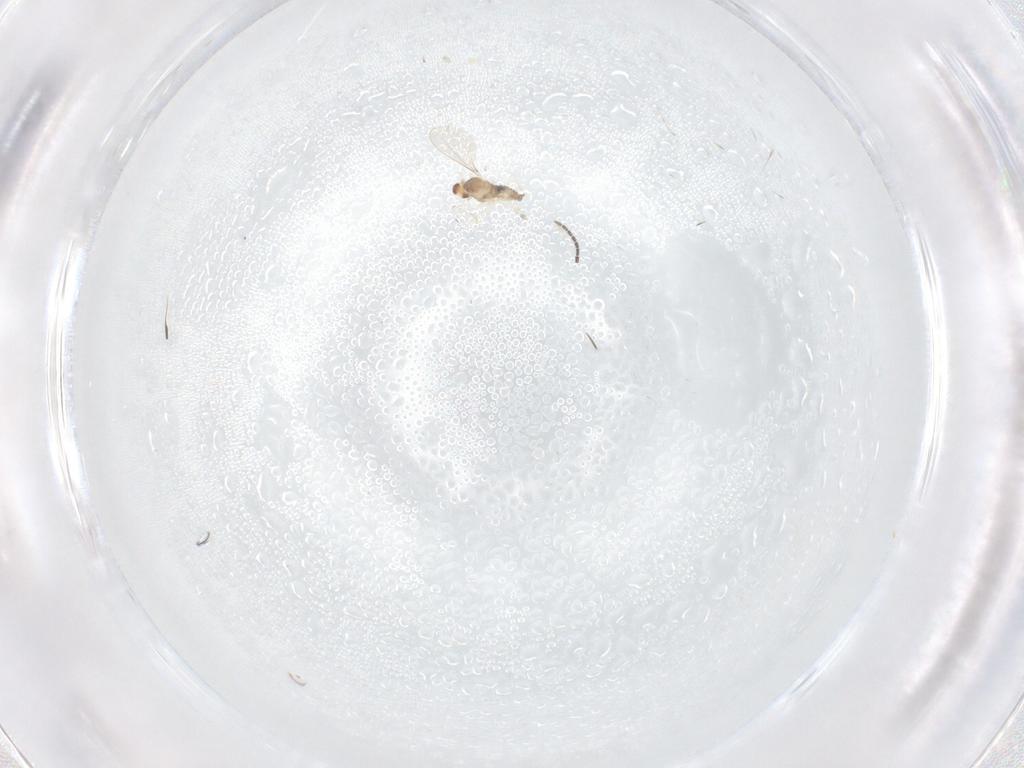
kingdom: Animalia
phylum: Arthropoda
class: Insecta
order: Diptera
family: Cecidomyiidae
